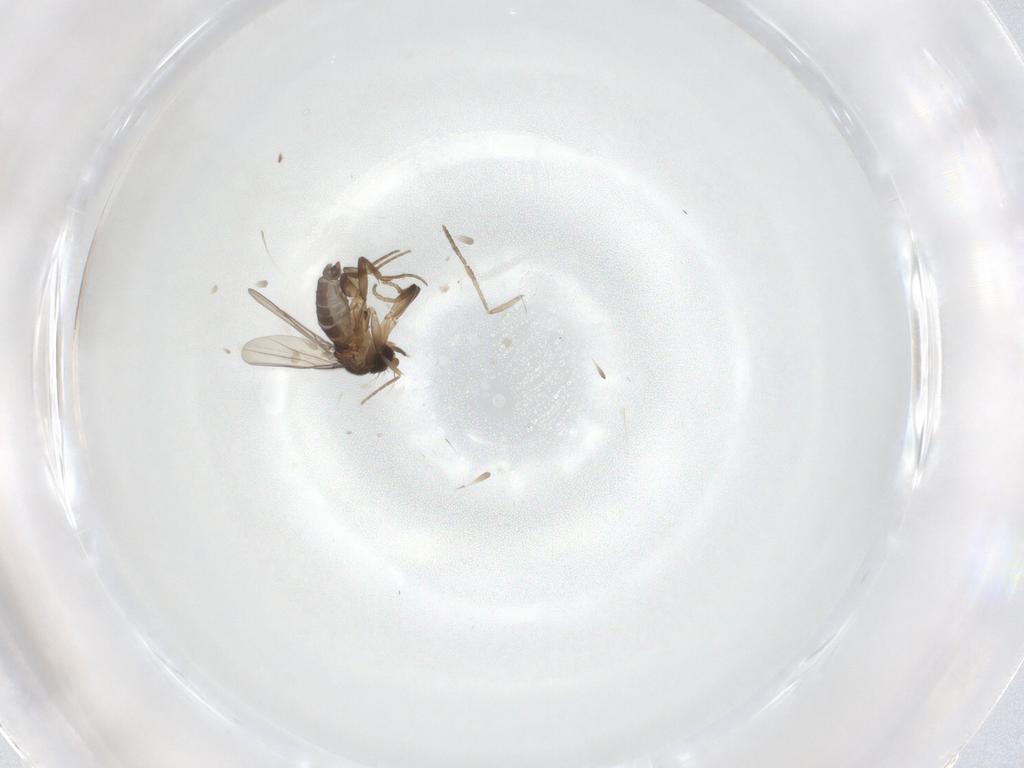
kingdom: Animalia
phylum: Arthropoda
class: Insecta
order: Diptera
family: Phoridae
